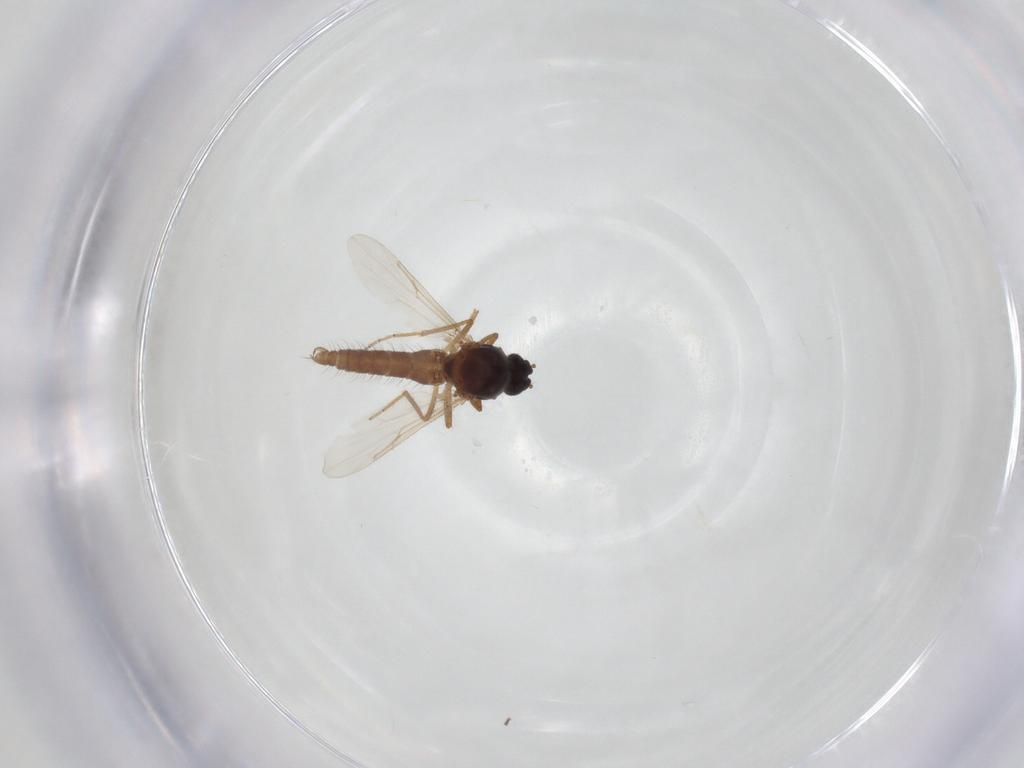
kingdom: Animalia
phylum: Arthropoda
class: Insecta
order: Diptera
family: Ceratopogonidae
